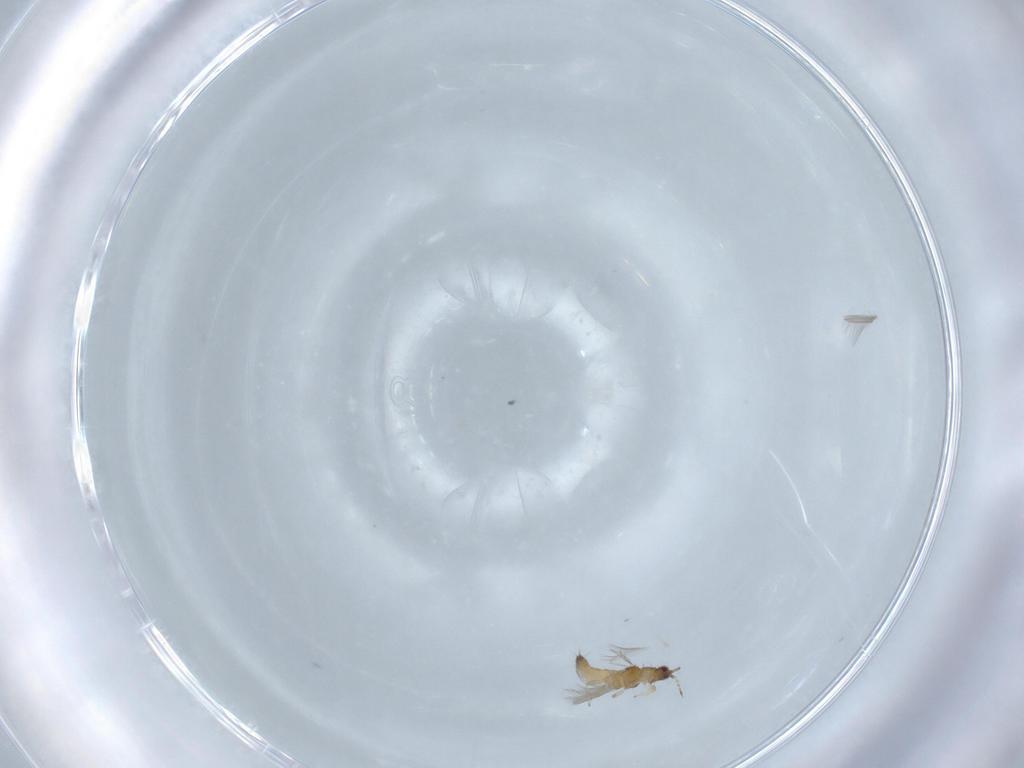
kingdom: Animalia
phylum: Arthropoda
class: Insecta
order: Thysanoptera
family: Thripidae
